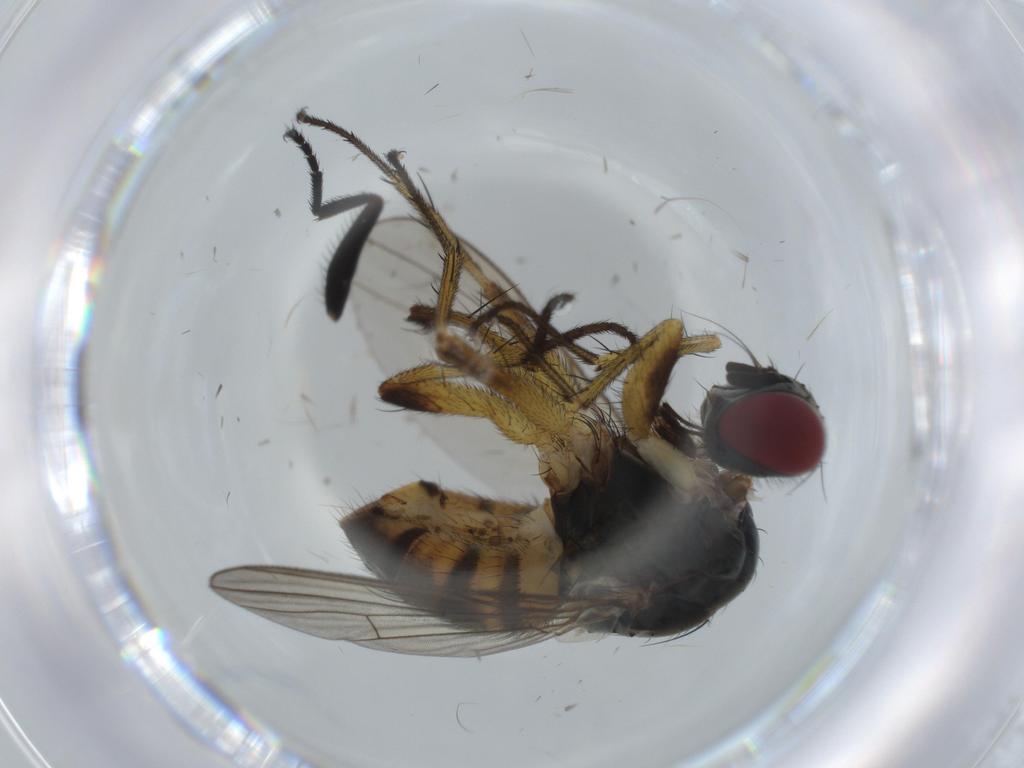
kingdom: Animalia
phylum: Arthropoda
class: Insecta
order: Diptera
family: Muscidae
